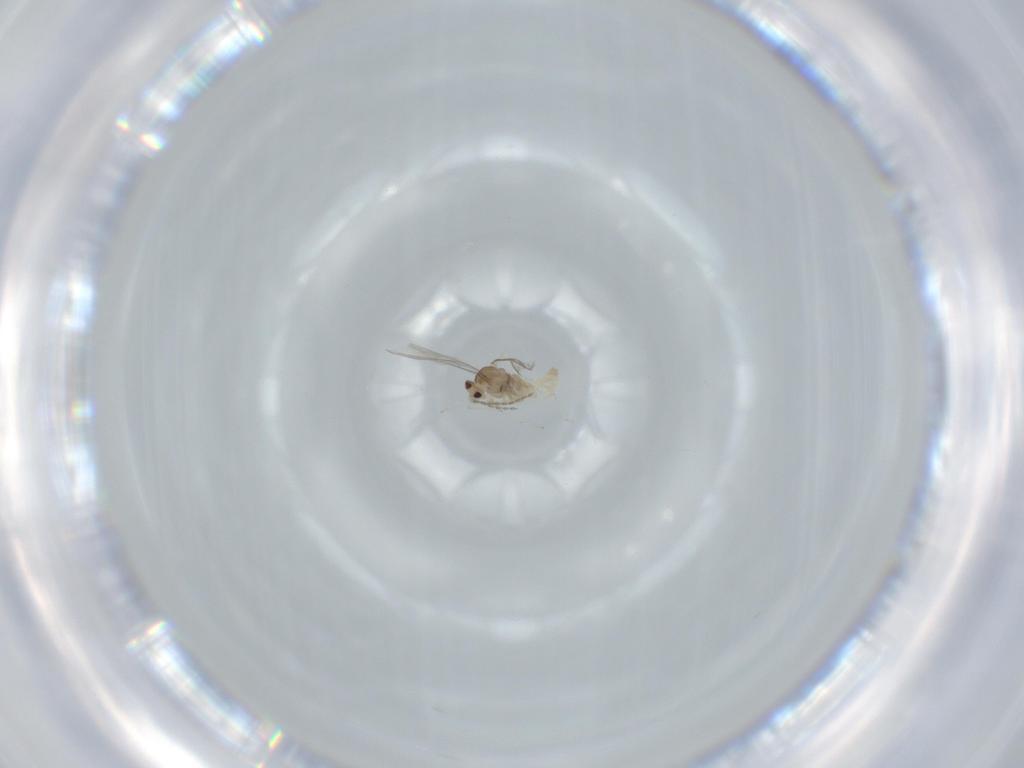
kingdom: Animalia
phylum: Arthropoda
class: Insecta
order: Diptera
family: Cecidomyiidae
